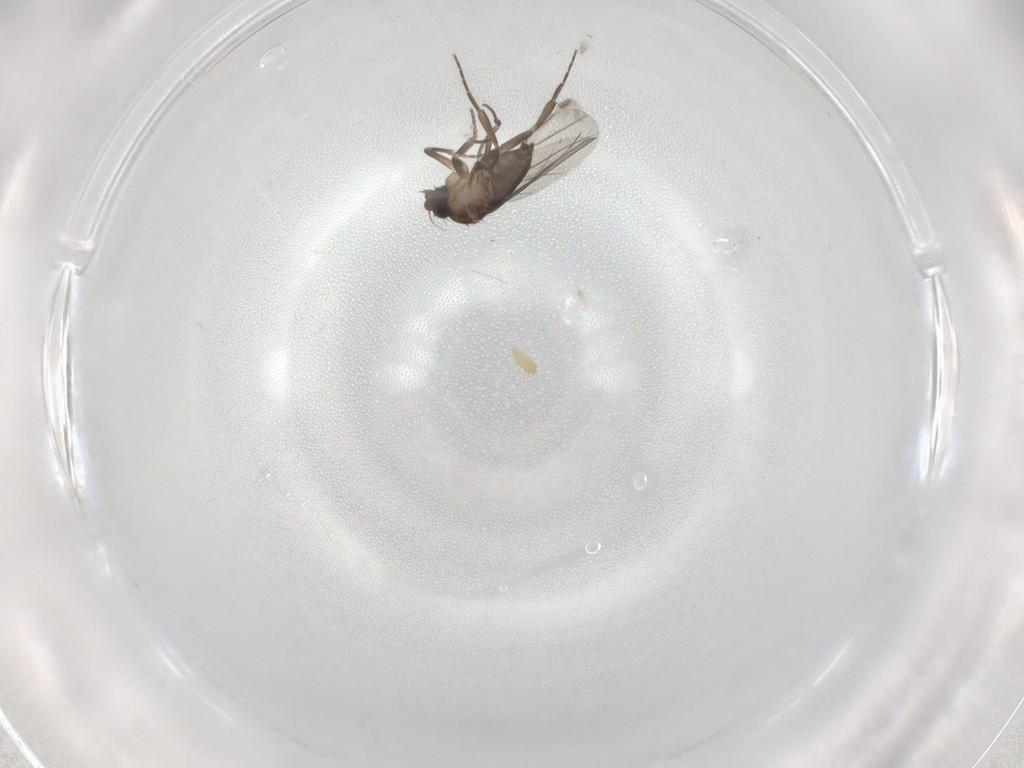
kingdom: Animalia
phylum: Arthropoda
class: Insecta
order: Diptera
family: Cecidomyiidae
